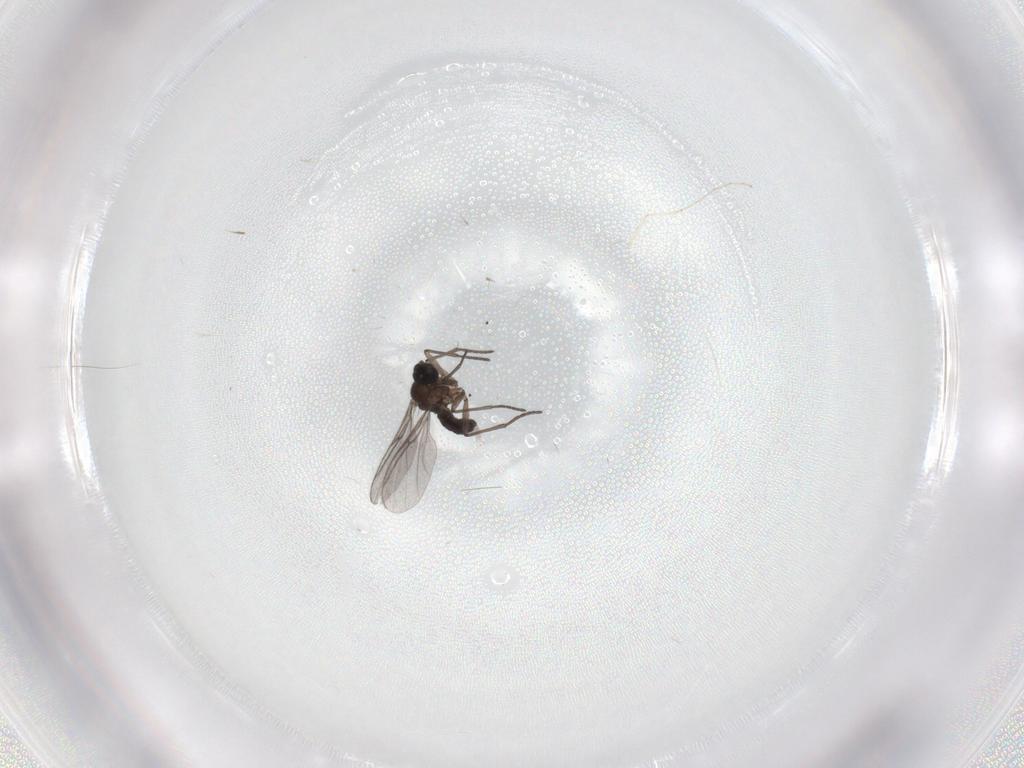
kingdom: Animalia
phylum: Arthropoda
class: Insecta
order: Diptera
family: Cecidomyiidae
